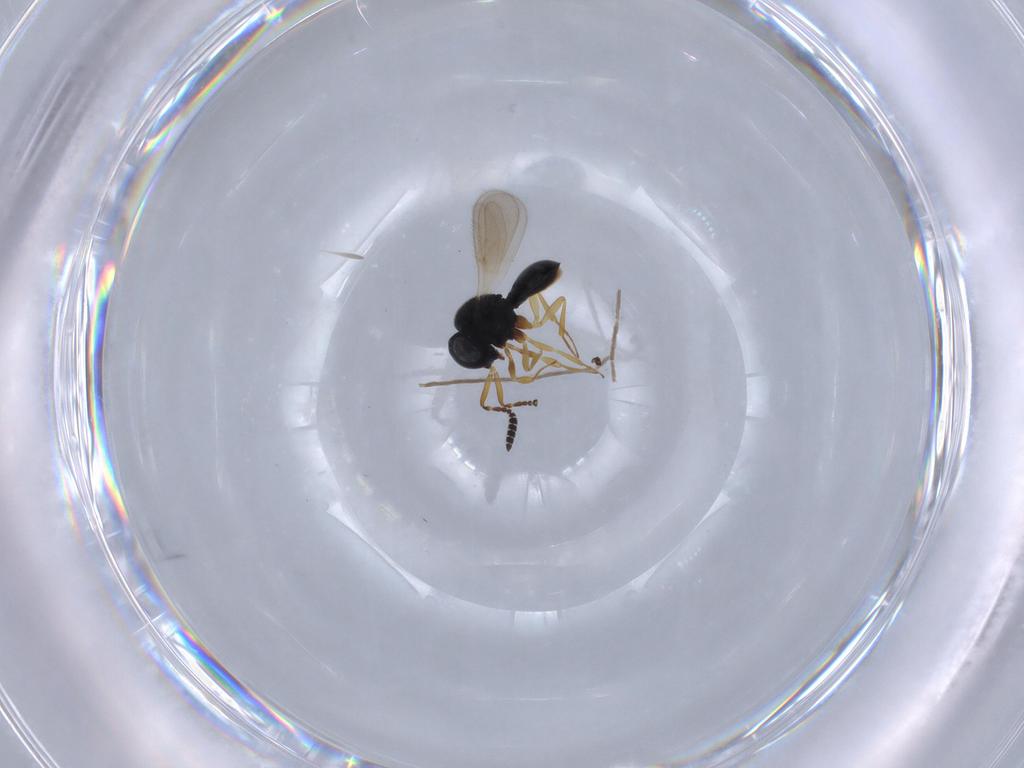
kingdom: Animalia
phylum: Arthropoda
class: Insecta
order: Hymenoptera
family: Scelionidae
